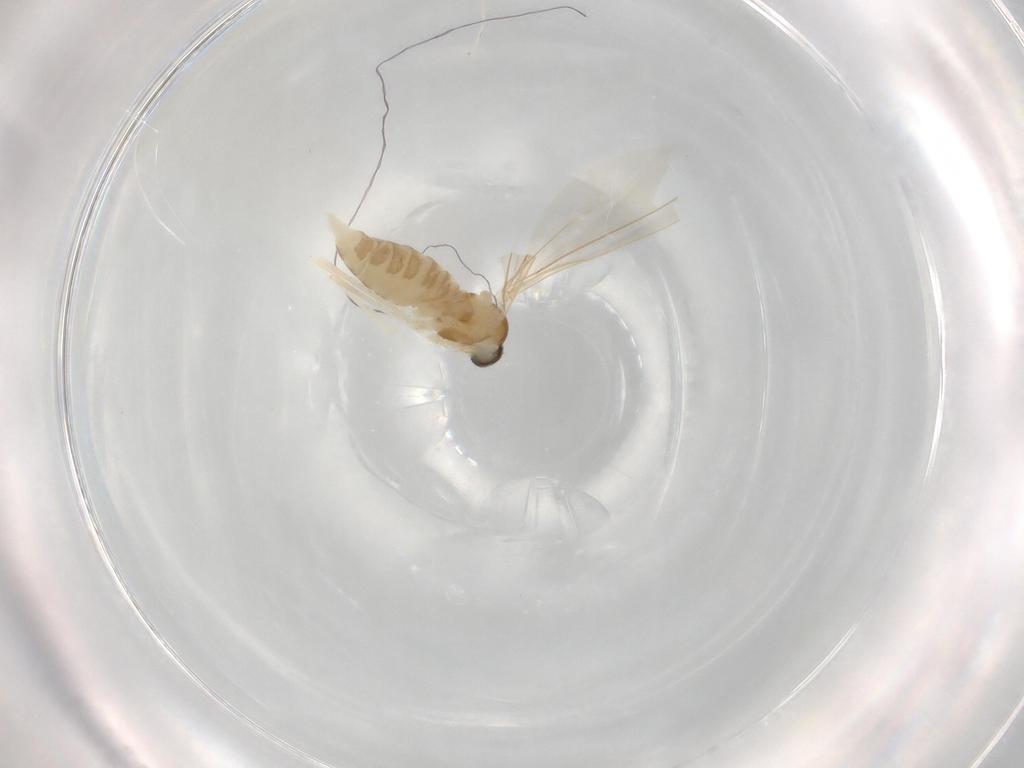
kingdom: Animalia
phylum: Arthropoda
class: Insecta
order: Diptera
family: Cecidomyiidae
